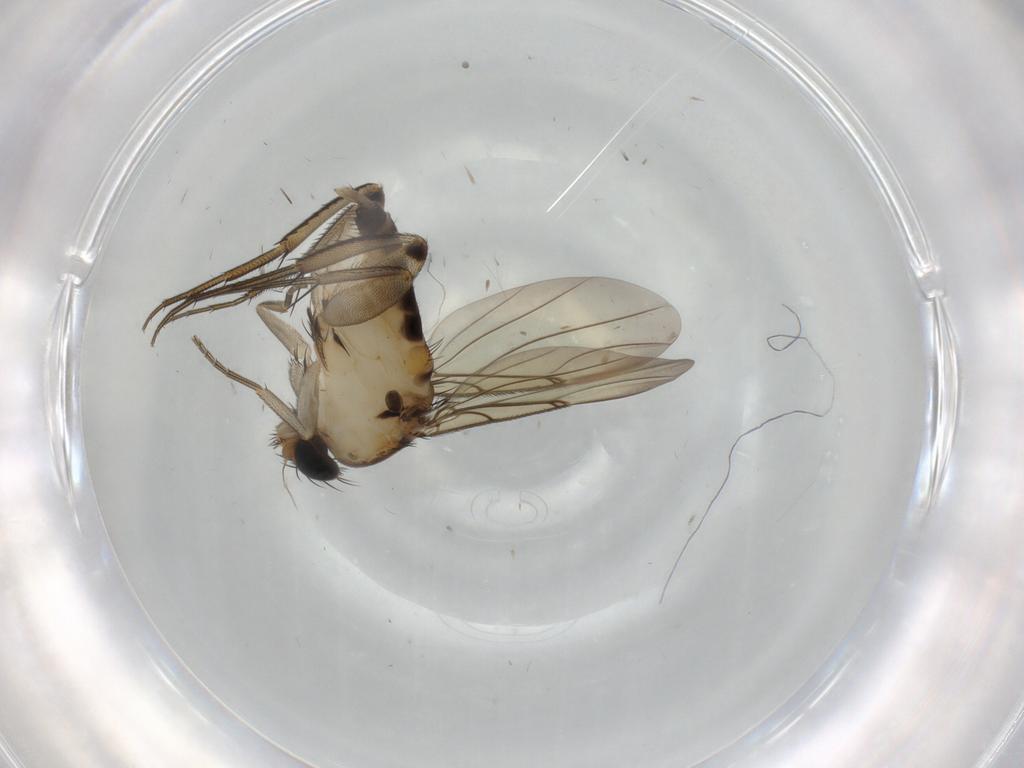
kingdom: Animalia
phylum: Arthropoda
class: Insecta
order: Diptera
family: Phoridae
